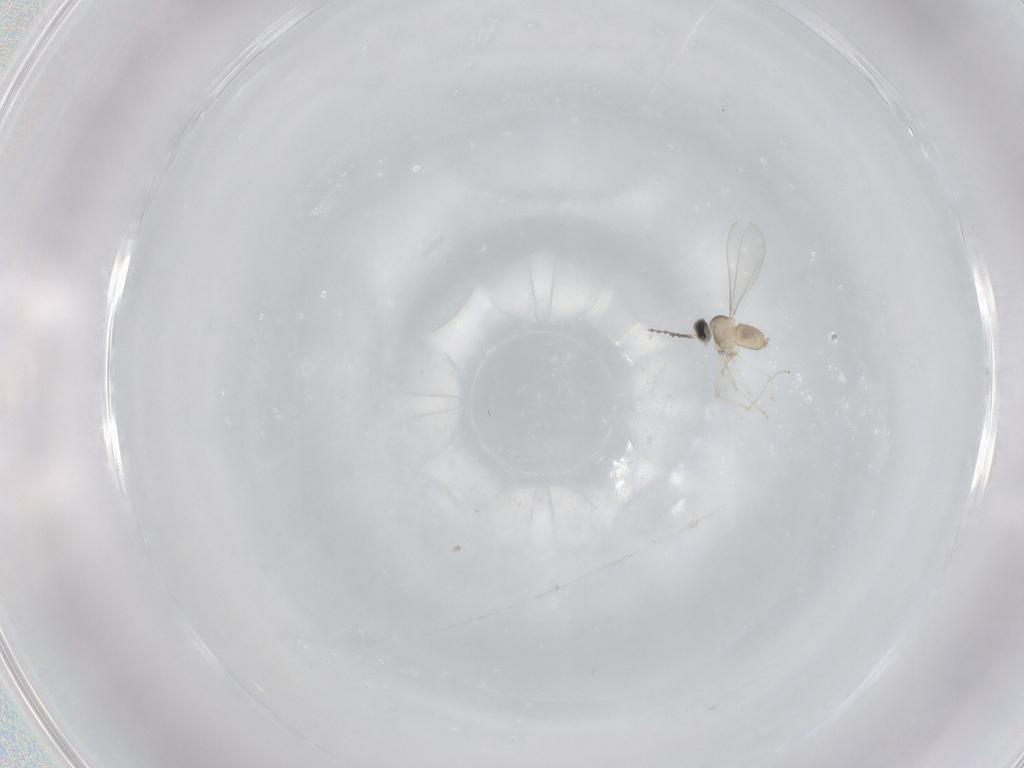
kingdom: Animalia
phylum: Arthropoda
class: Insecta
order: Diptera
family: Cecidomyiidae
